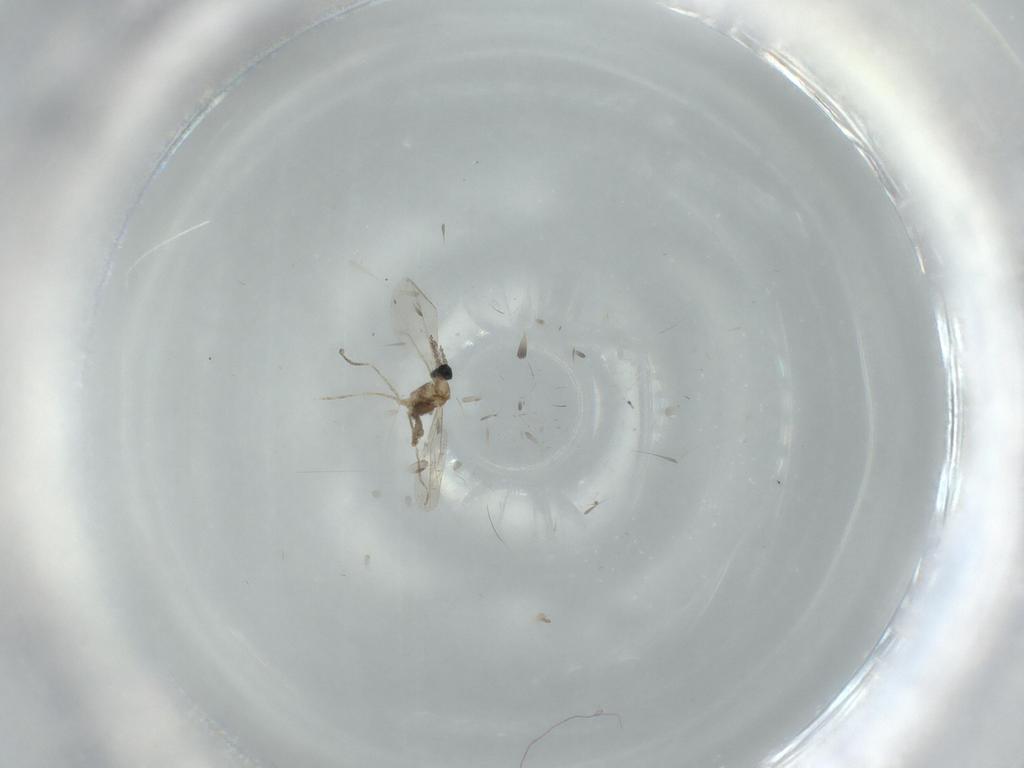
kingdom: Animalia
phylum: Arthropoda
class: Insecta
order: Diptera
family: Cecidomyiidae
